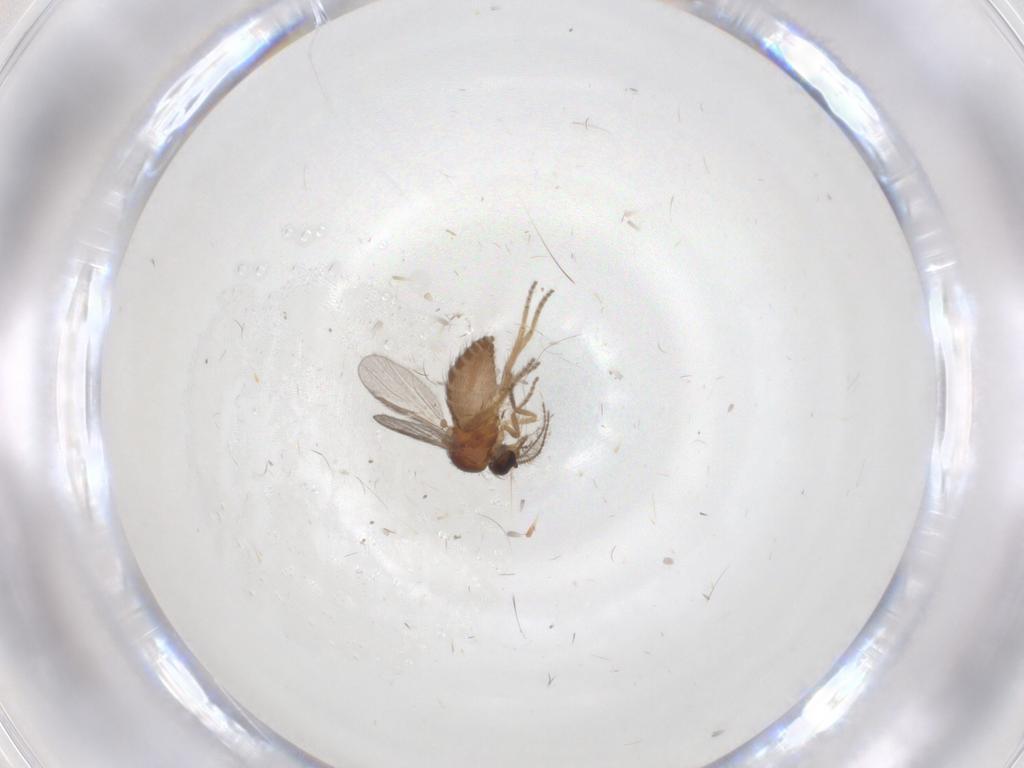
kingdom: Animalia
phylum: Arthropoda
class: Insecta
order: Diptera
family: Ceratopogonidae
